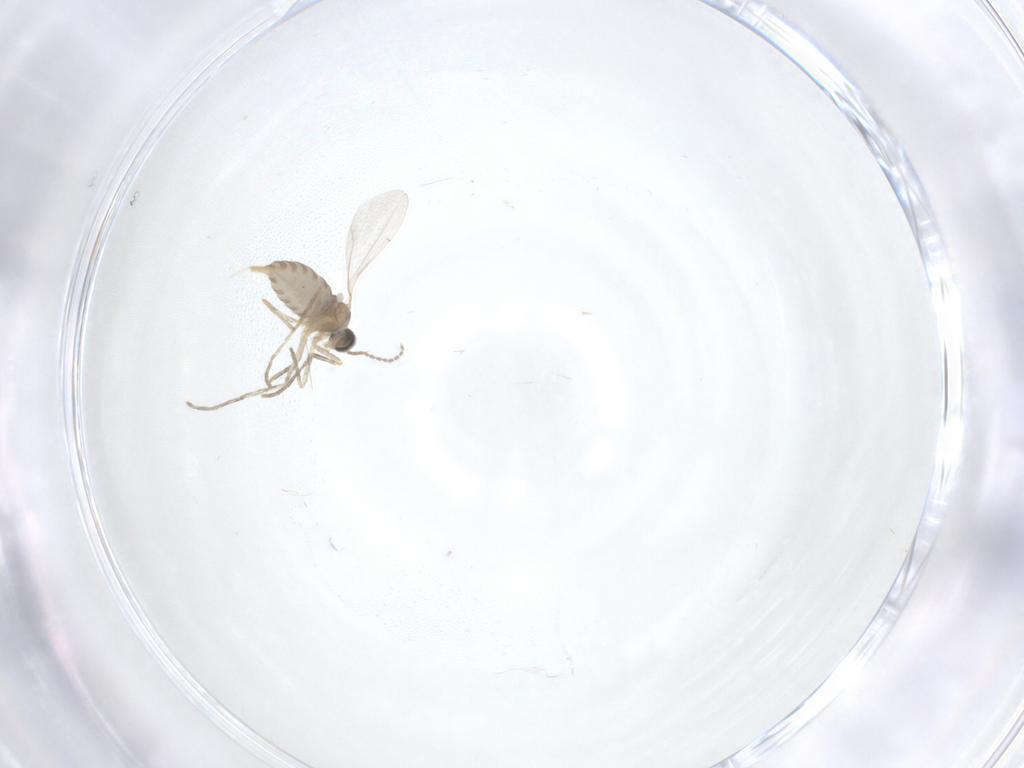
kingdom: Animalia
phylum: Arthropoda
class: Insecta
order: Diptera
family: Cecidomyiidae
